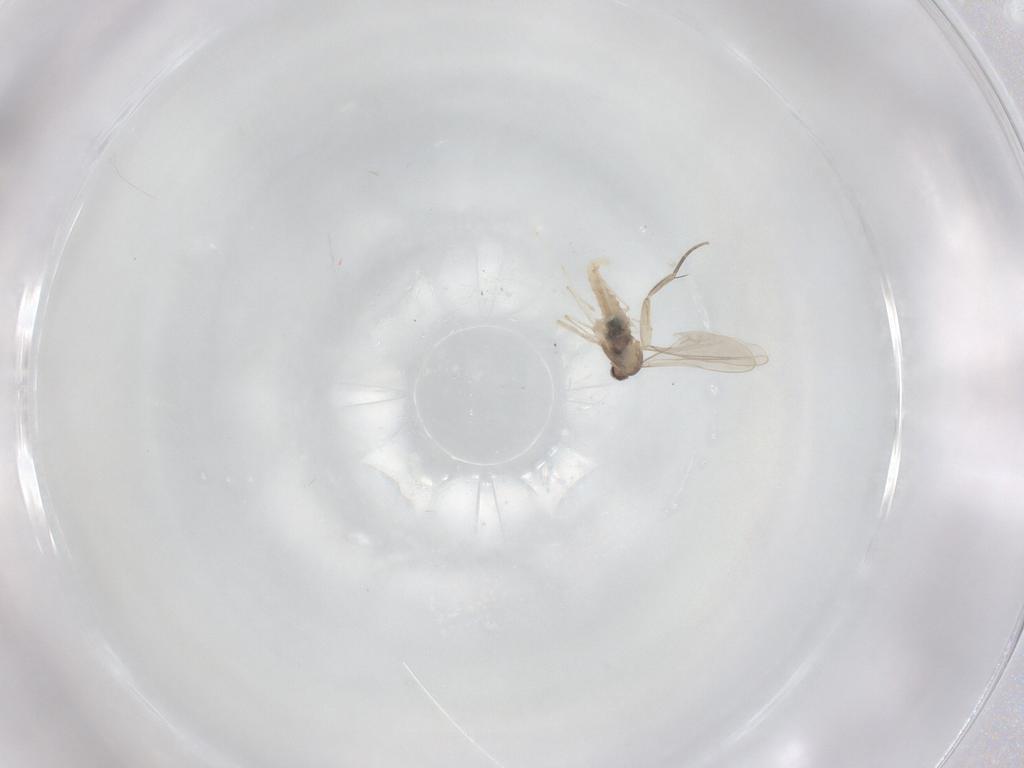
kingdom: Animalia
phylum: Arthropoda
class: Insecta
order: Diptera
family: Cecidomyiidae
